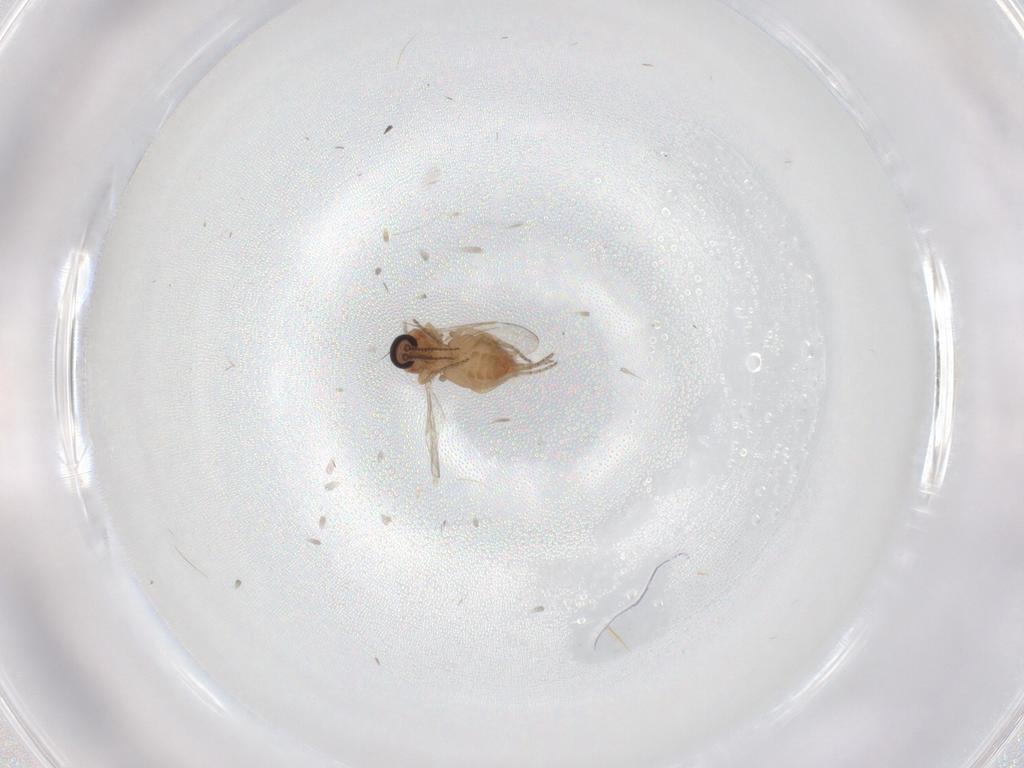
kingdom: Animalia
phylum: Arthropoda
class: Insecta
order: Diptera
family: Ceratopogonidae
